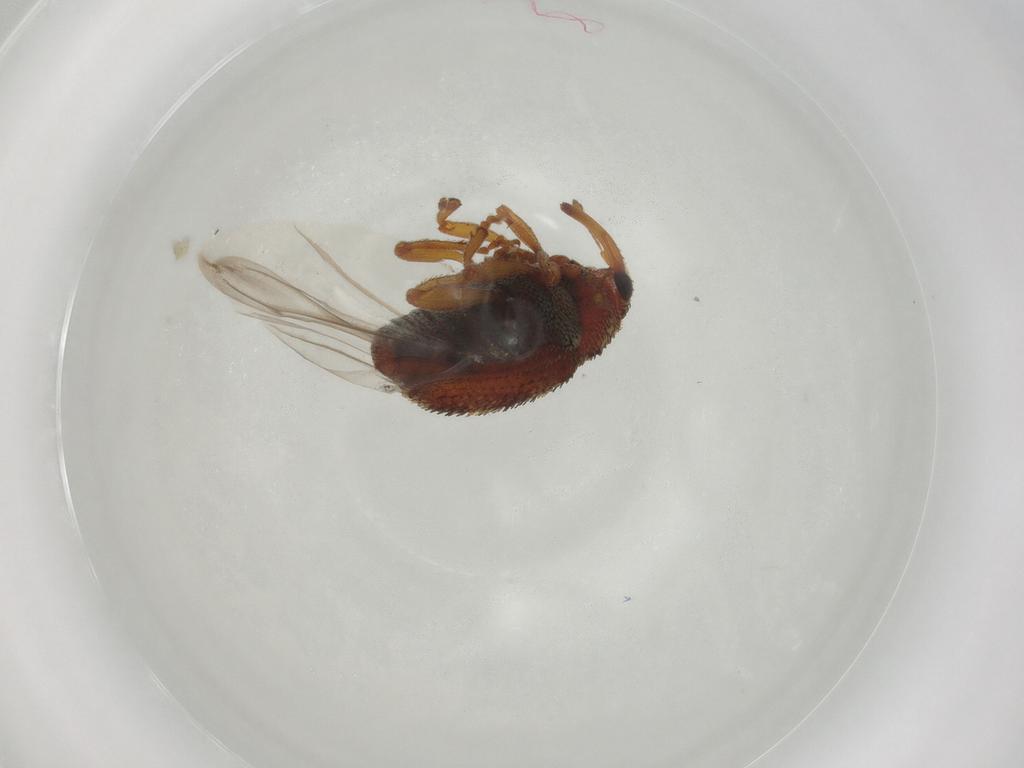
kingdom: Animalia
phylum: Arthropoda
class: Insecta
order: Coleoptera
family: Curculionidae
